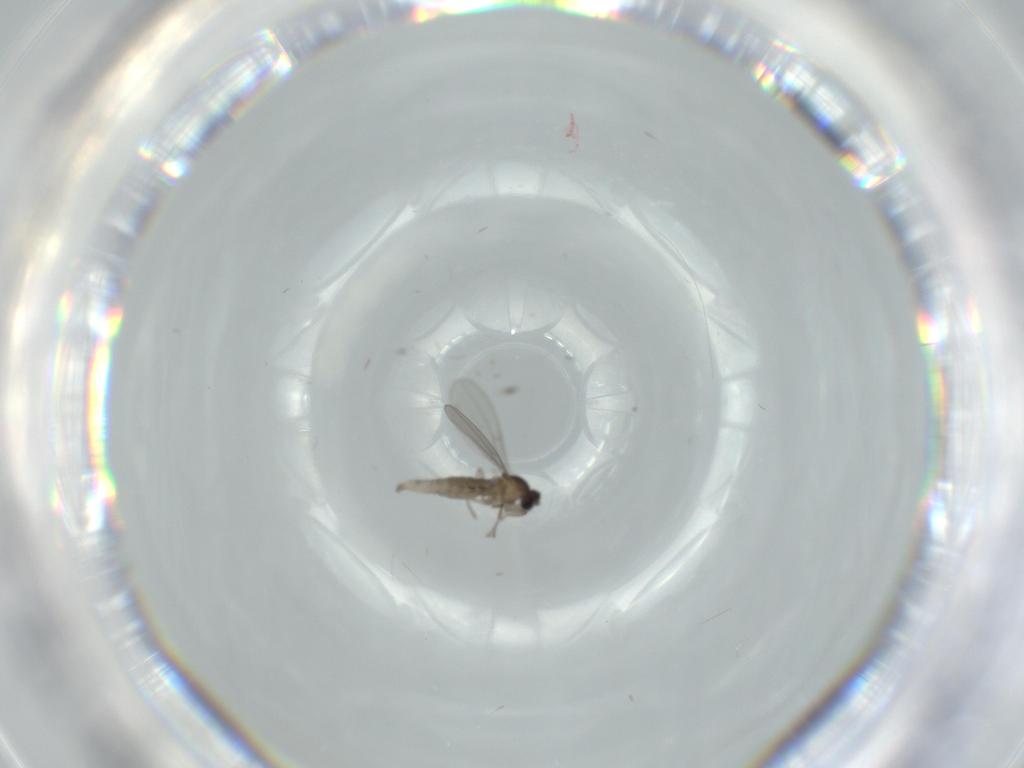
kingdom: Animalia
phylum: Arthropoda
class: Insecta
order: Diptera
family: Cecidomyiidae
